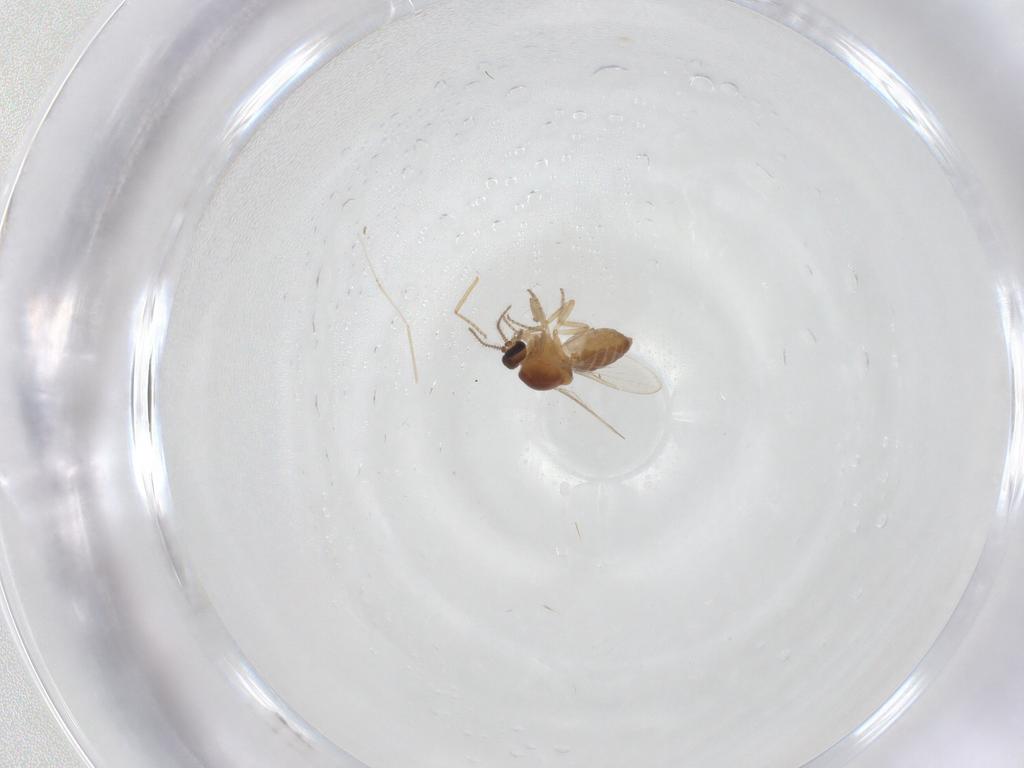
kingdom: Animalia
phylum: Arthropoda
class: Insecta
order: Diptera
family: Ceratopogonidae
